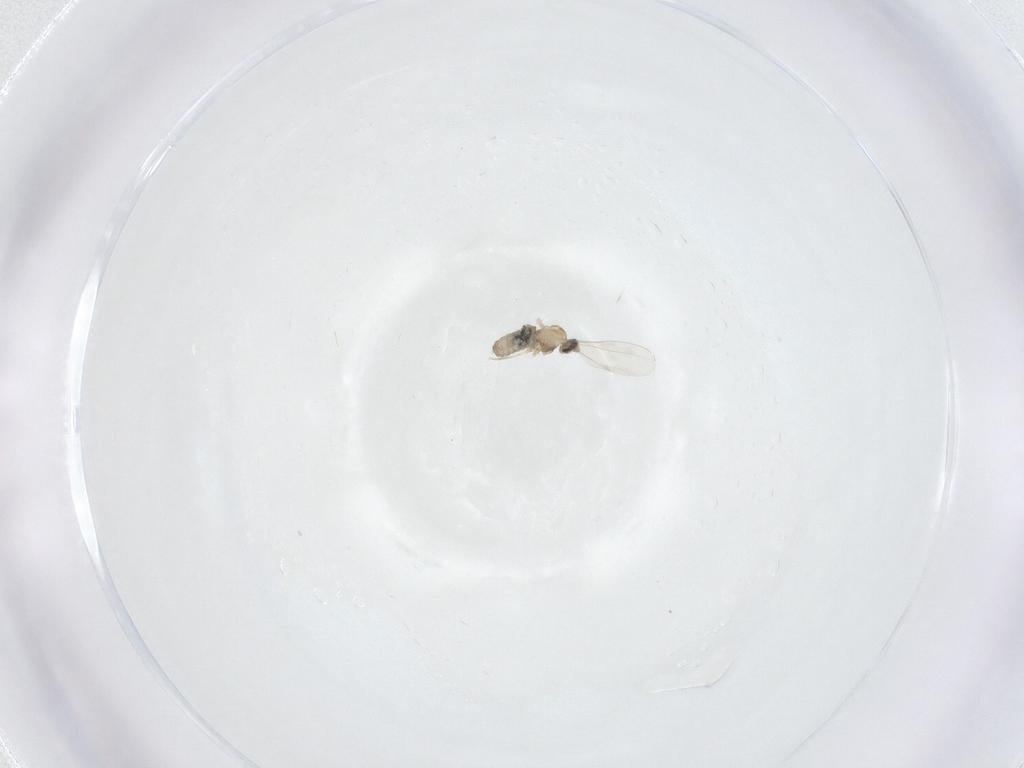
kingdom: Animalia
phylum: Arthropoda
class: Insecta
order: Diptera
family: Cecidomyiidae
